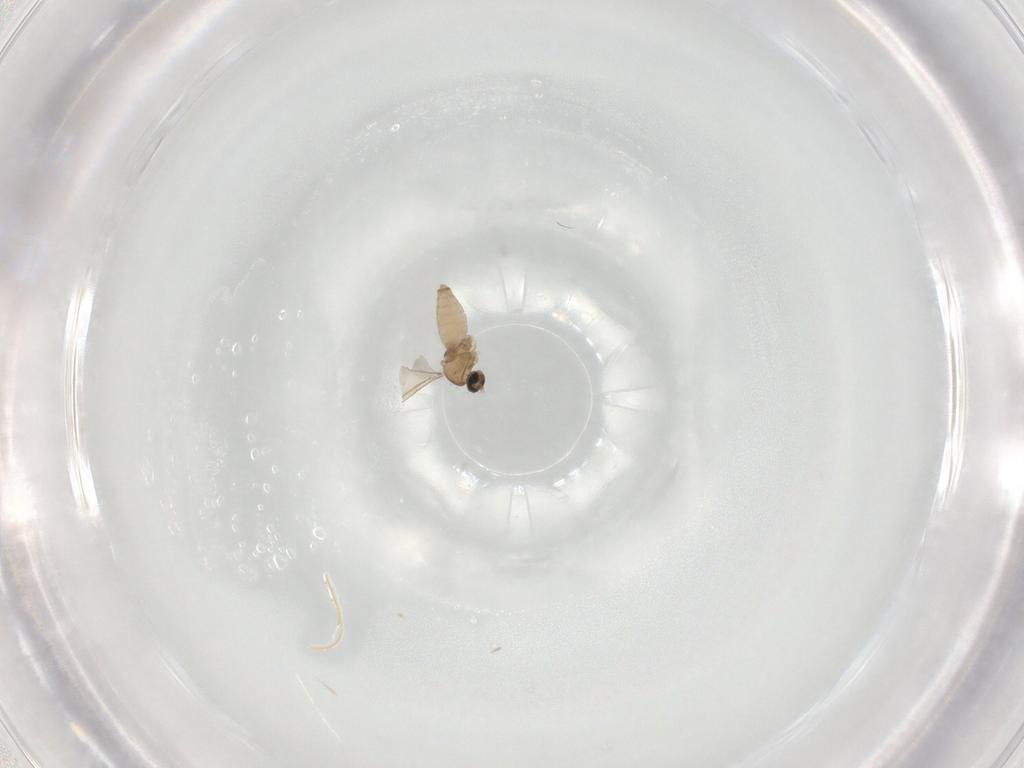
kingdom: Animalia
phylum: Arthropoda
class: Insecta
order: Diptera
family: Cecidomyiidae
